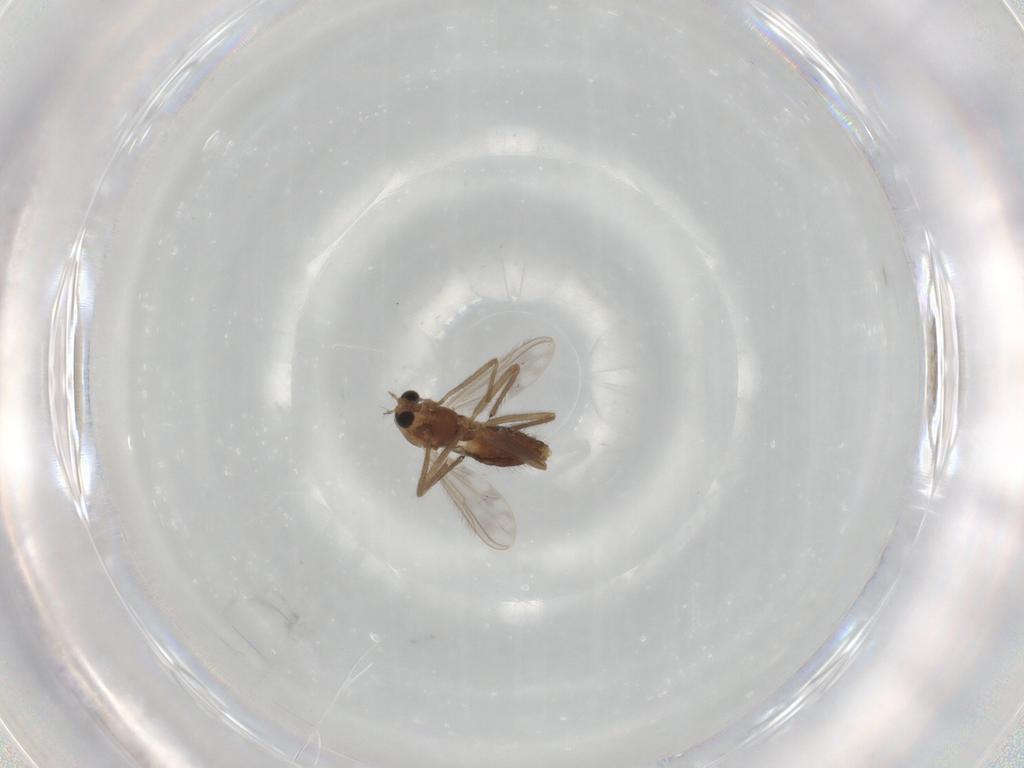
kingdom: Animalia
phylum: Arthropoda
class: Insecta
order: Diptera
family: Chironomidae
